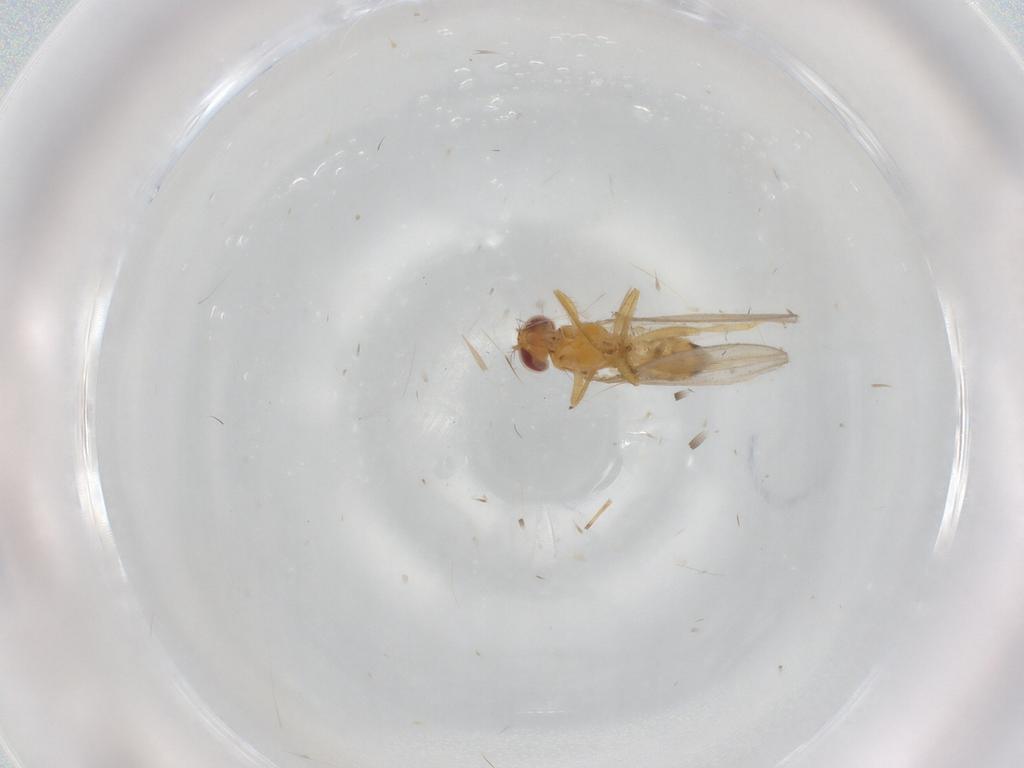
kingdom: Animalia
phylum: Arthropoda
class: Insecta
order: Diptera
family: Periscelididae
